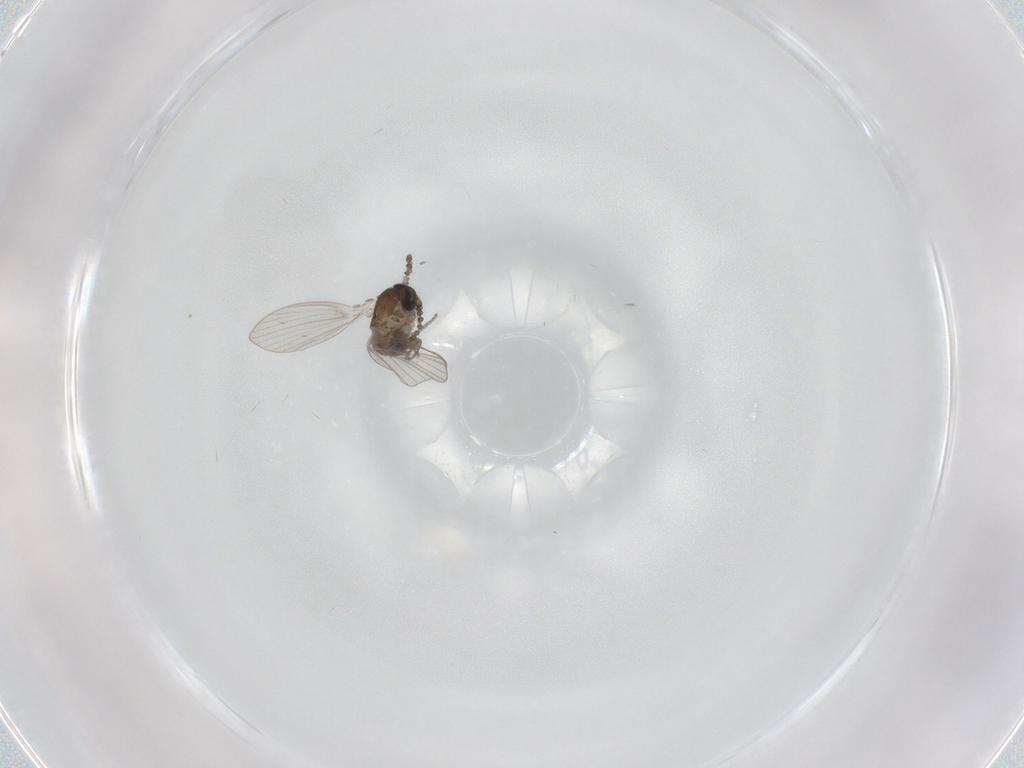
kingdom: Animalia
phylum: Arthropoda
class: Insecta
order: Diptera
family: Psychodidae
